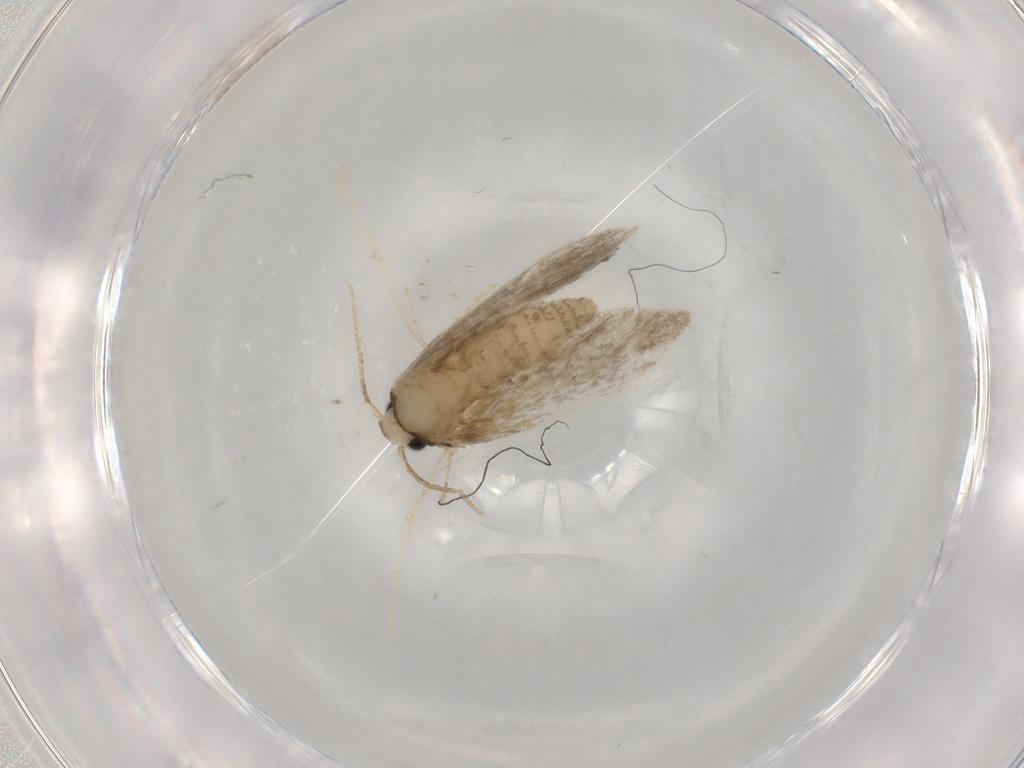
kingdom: Animalia
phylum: Arthropoda
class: Insecta
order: Lepidoptera
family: Psychidae
